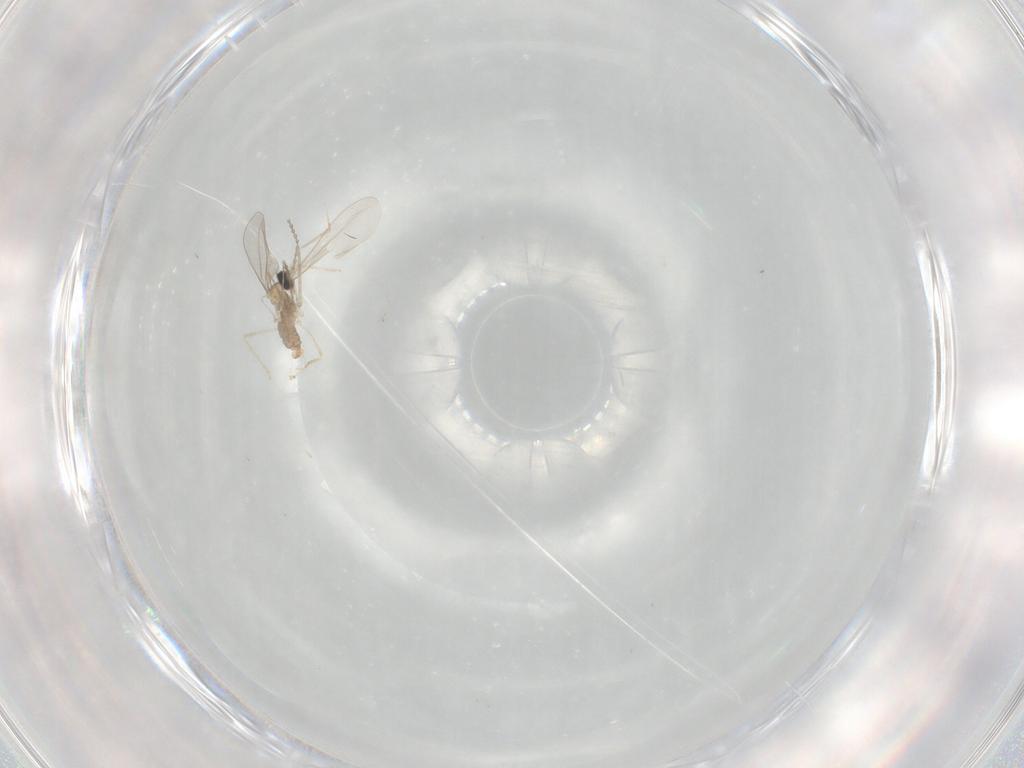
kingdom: Animalia
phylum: Arthropoda
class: Insecta
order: Diptera
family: Cecidomyiidae
